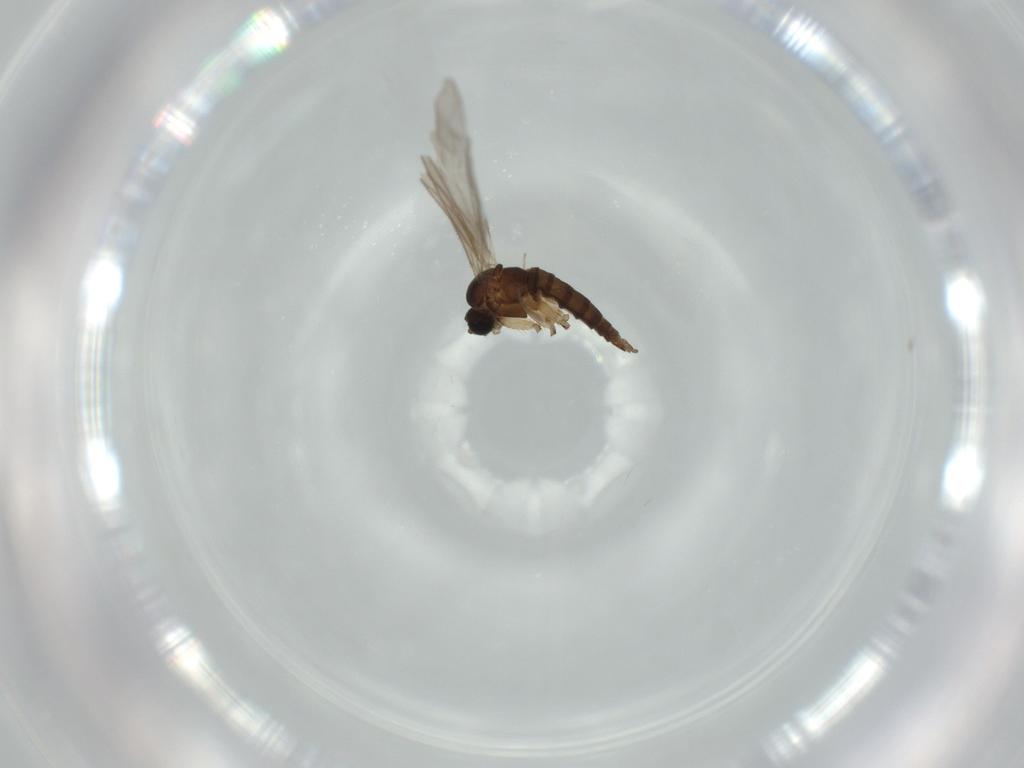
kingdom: Animalia
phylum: Arthropoda
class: Insecta
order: Diptera
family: Sciaridae
